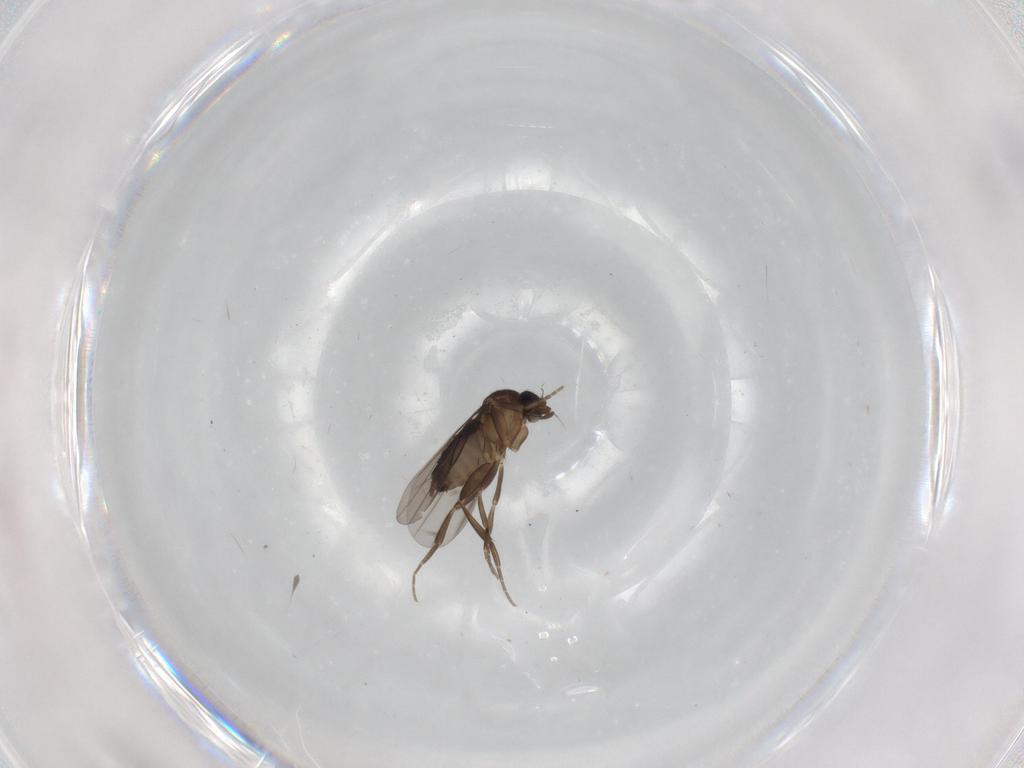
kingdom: Animalia
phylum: Arthropoda
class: Insecta
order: Diptera
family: Phoridae
